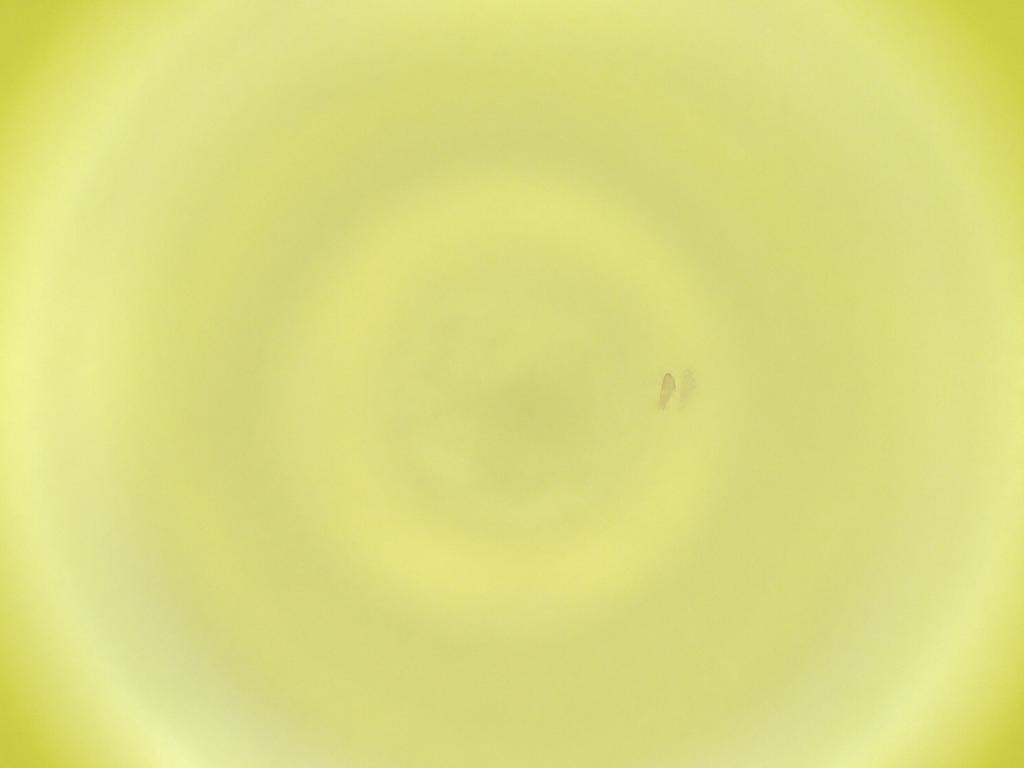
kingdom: Animalia
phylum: Arthropoda
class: Insecta
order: Diptera
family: Cecidomyiidae
